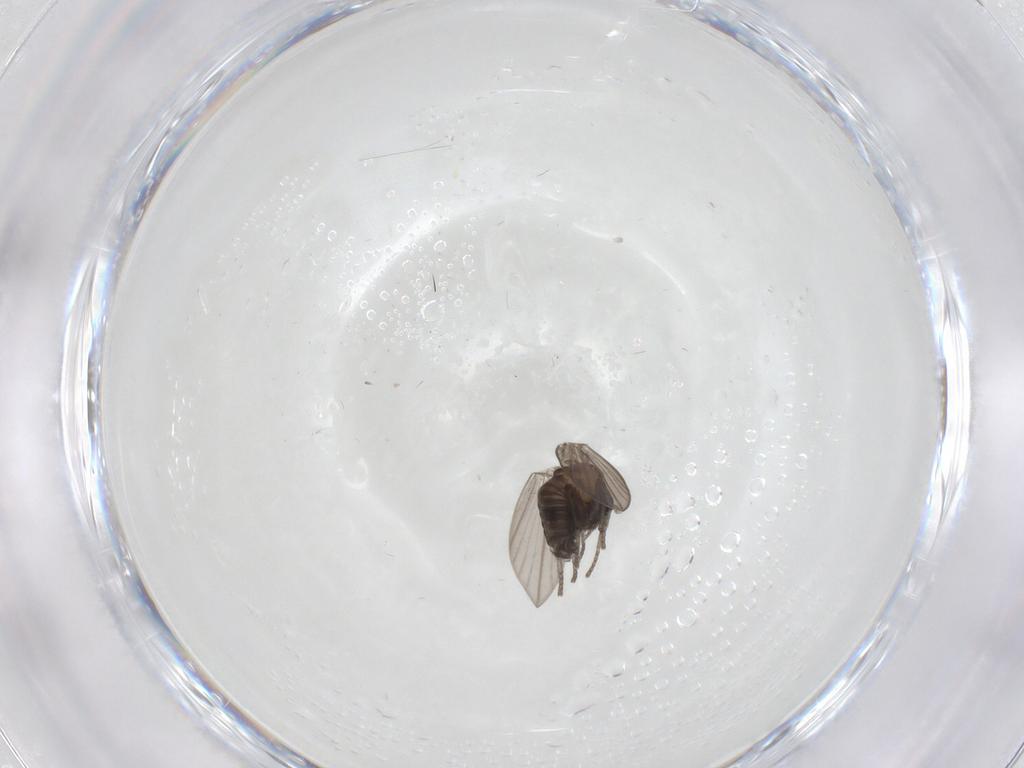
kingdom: Animalia
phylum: Arthropoda
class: Insecta
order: Diptera
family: Psychodidae
